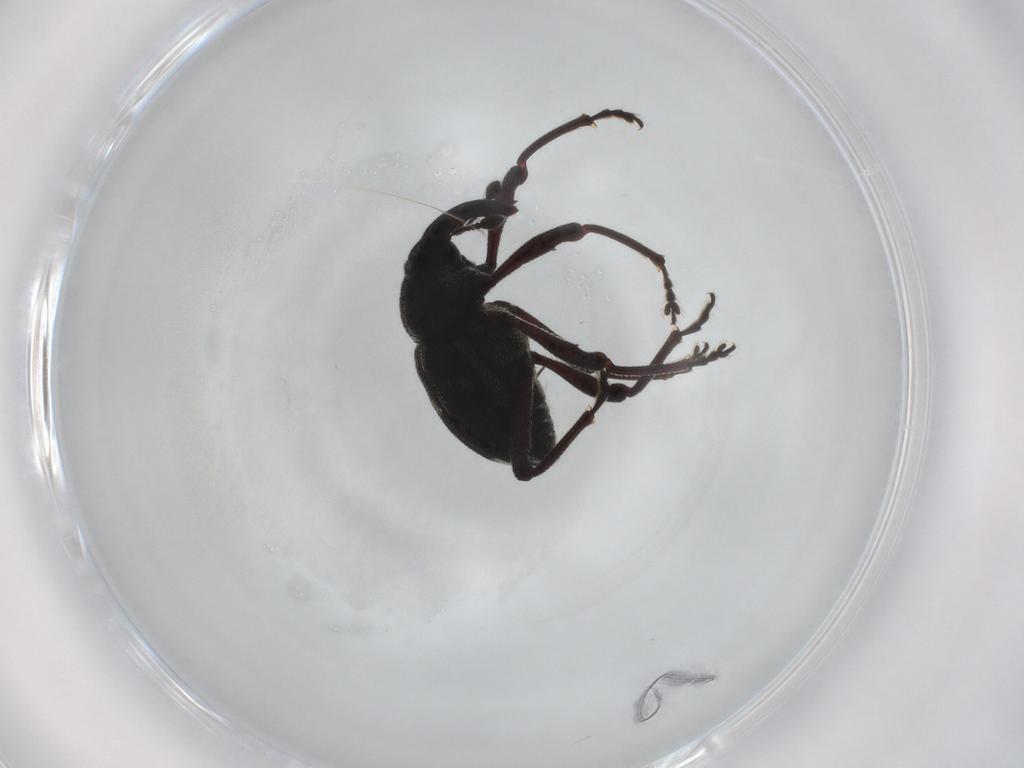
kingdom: Animalia
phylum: Arthropoda
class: Insecta
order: Coleoptera
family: Curculionidae
